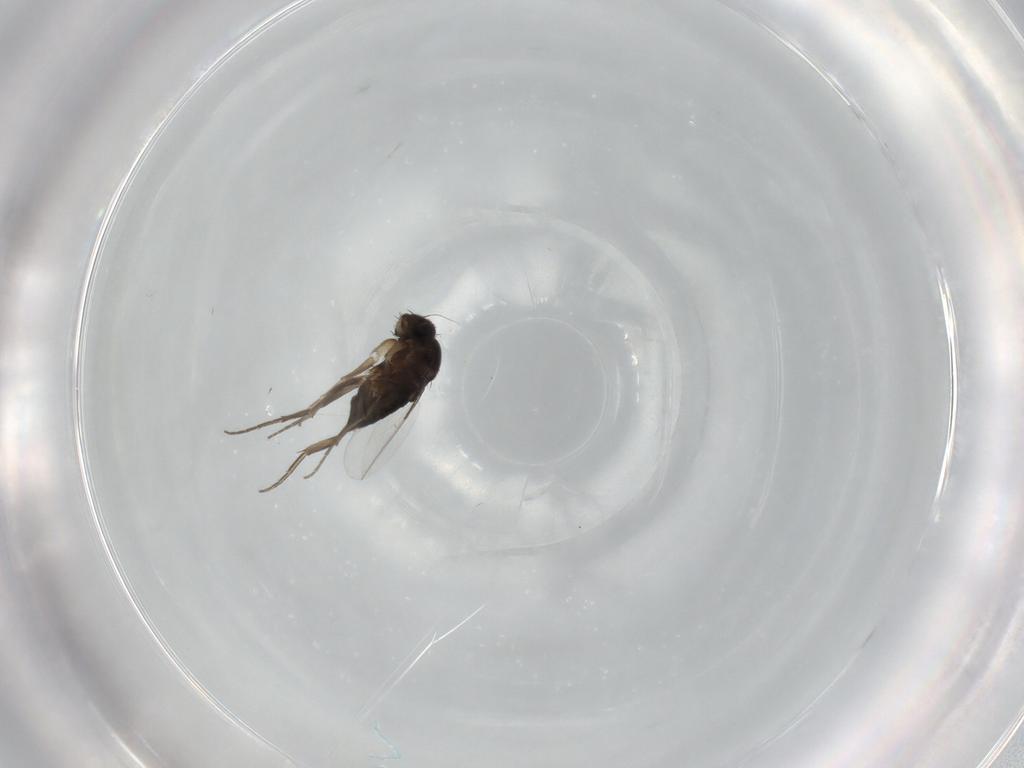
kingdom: Animalia
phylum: Arthropoda
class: Insecta
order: Diptera
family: Phoridae
